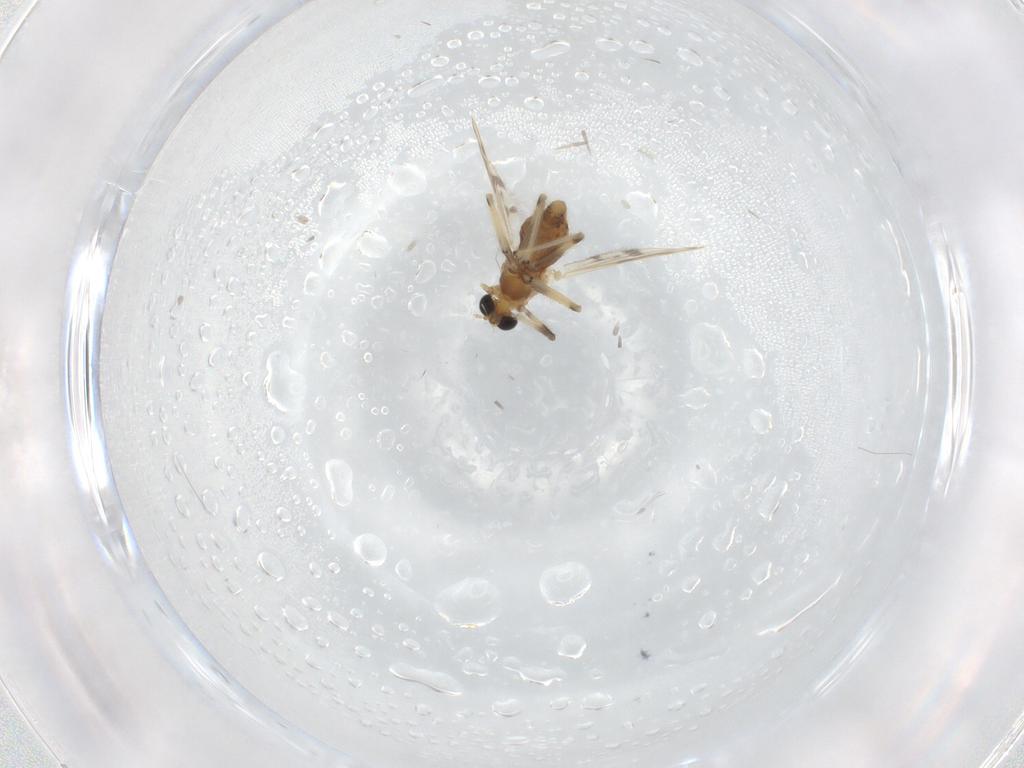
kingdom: Animalia
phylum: Arthropoda
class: Insecta
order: Diptera
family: Chironomidae
